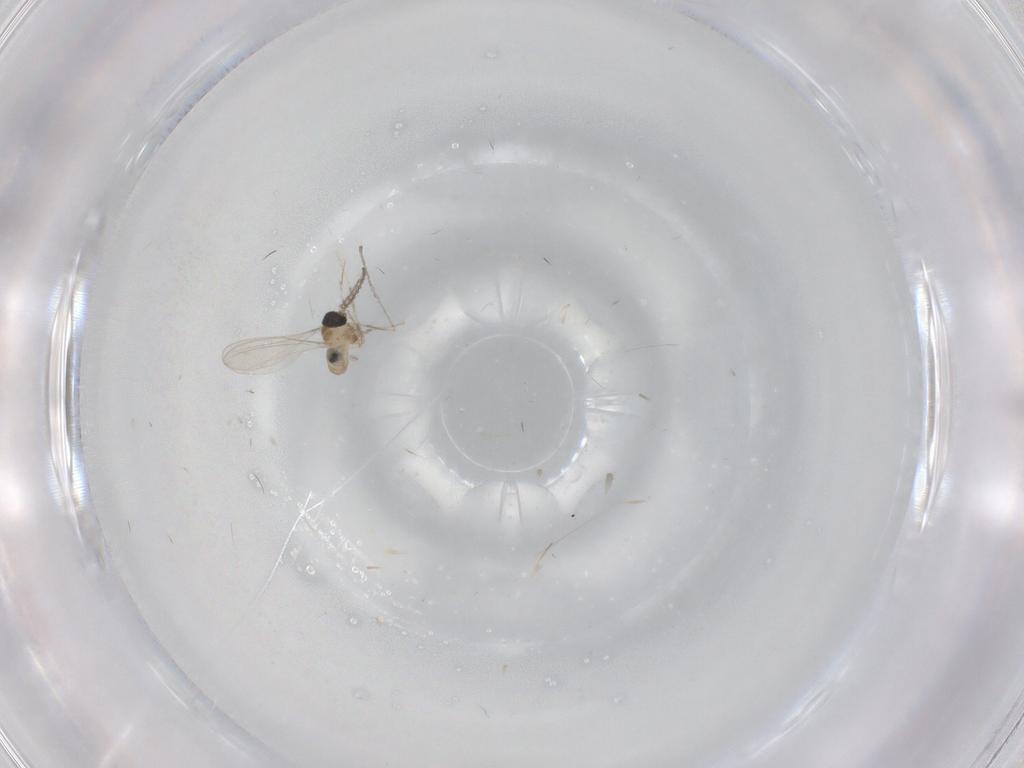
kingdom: Animalia
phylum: Arthropoda
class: Insecta
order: Diptera
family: Cecidomyiidae
